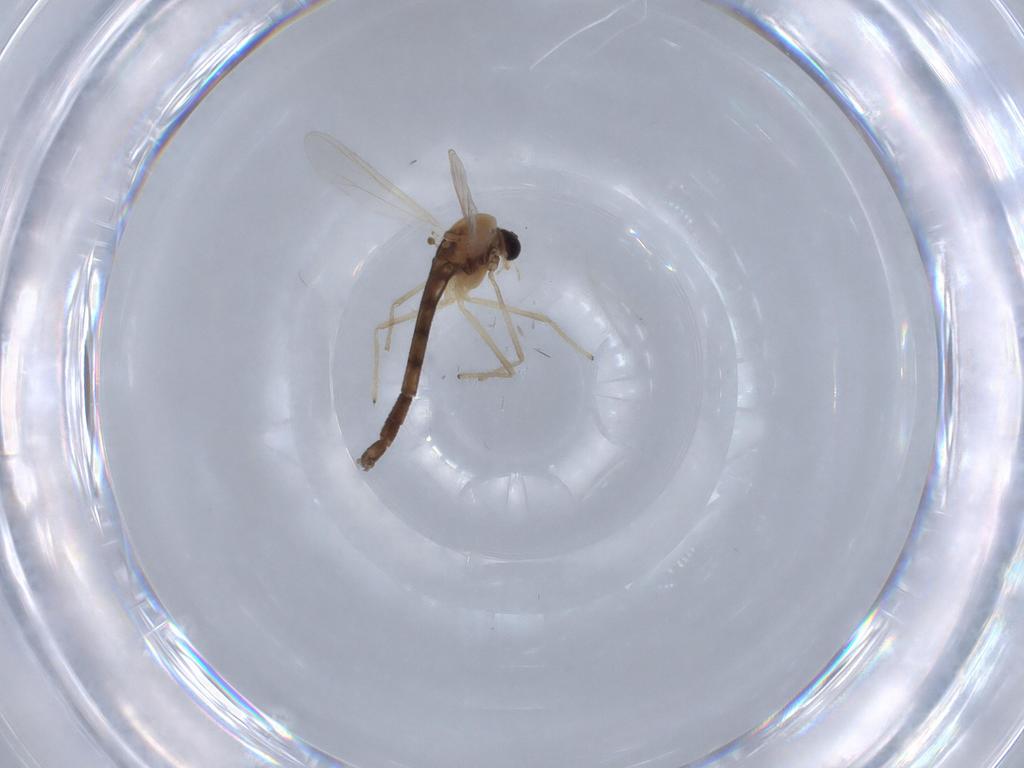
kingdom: Animalia
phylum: Arthropoda
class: Insecta
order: Diptera
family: Chironomidae
